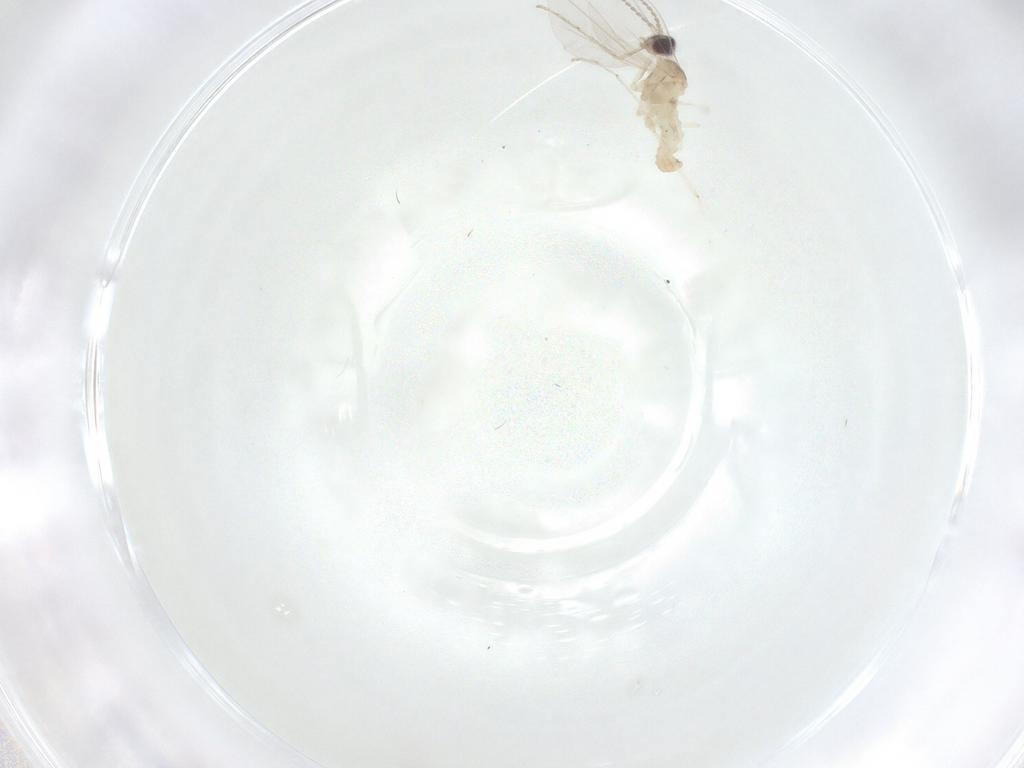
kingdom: Animalia
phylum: Arthropoda
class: Insecta
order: Diptera
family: Cecidomyiidae
